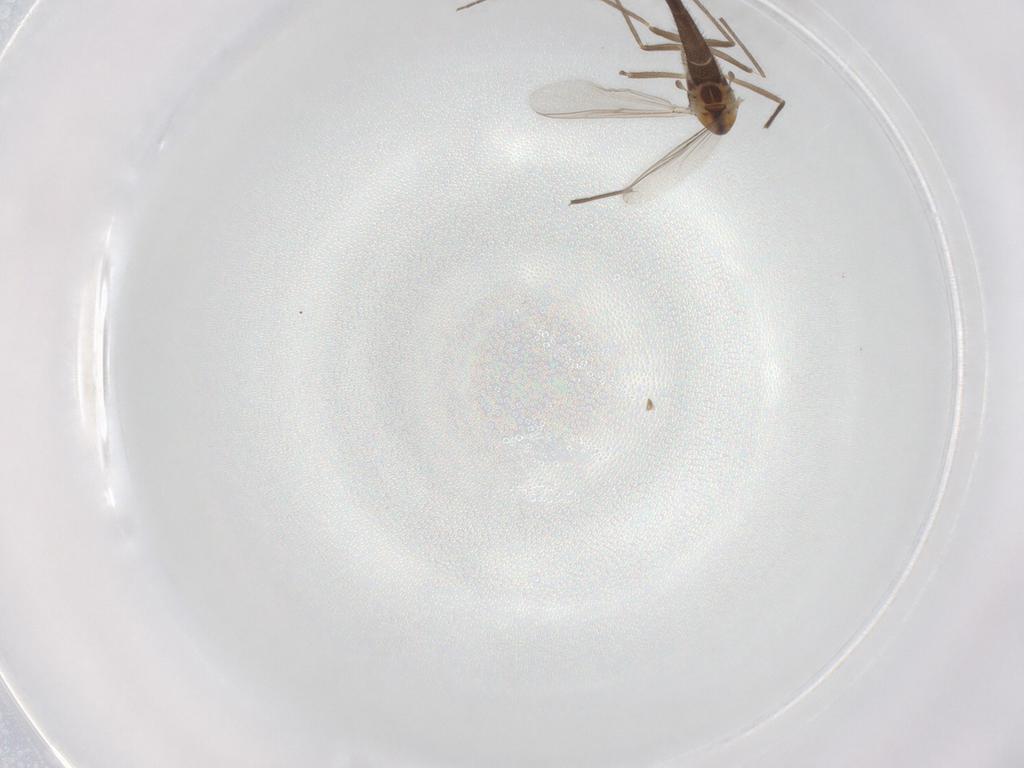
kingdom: Animalia
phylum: Arthropoda
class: Insecta
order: Diptera
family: Chironomidae
